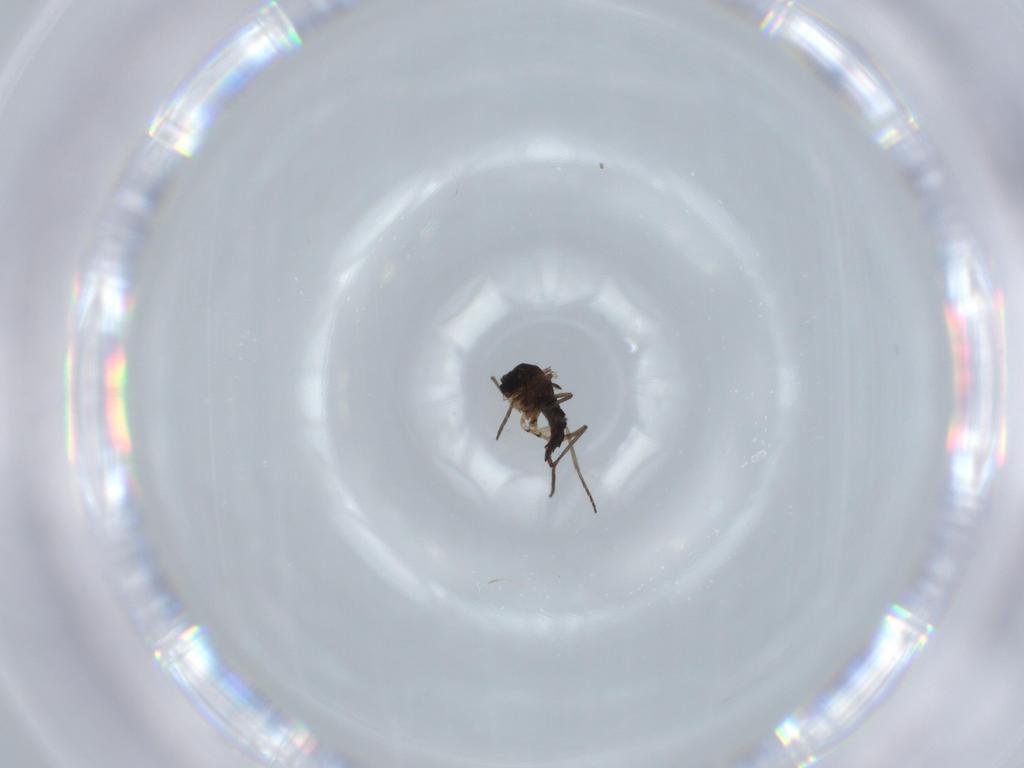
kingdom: Animalia
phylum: Arthropoda
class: Insecta
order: Diptera
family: Sciaridae
